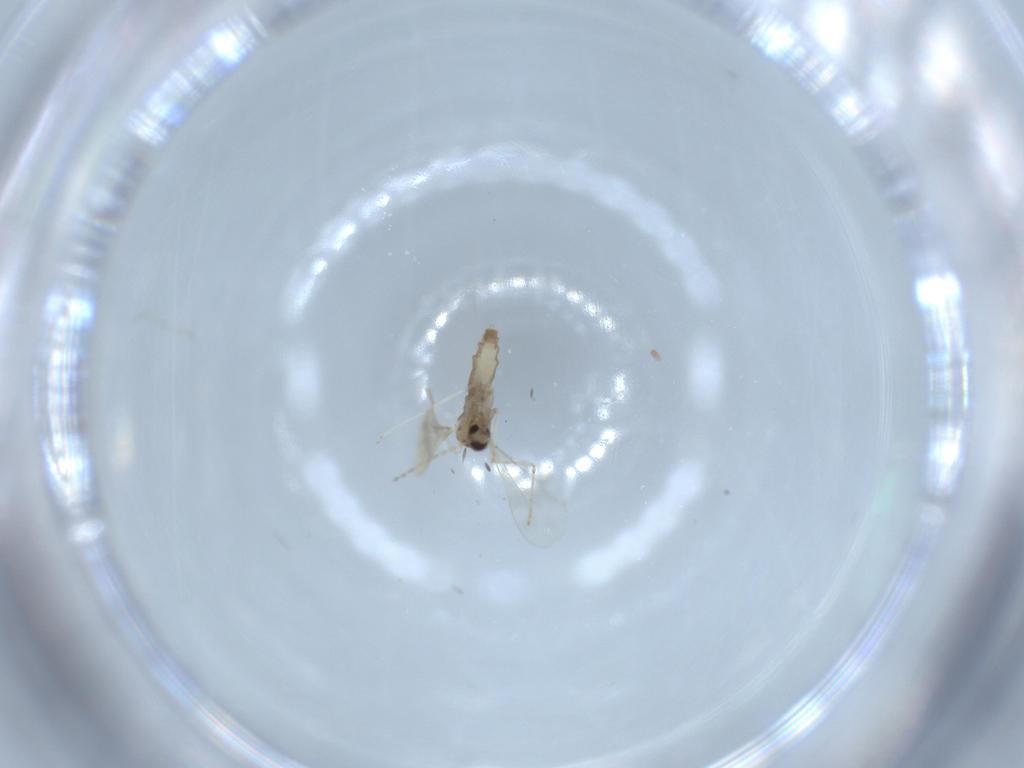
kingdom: Animalia
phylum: Arthropoda
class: Insecta
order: Diptera
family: Cecidomyiidae
